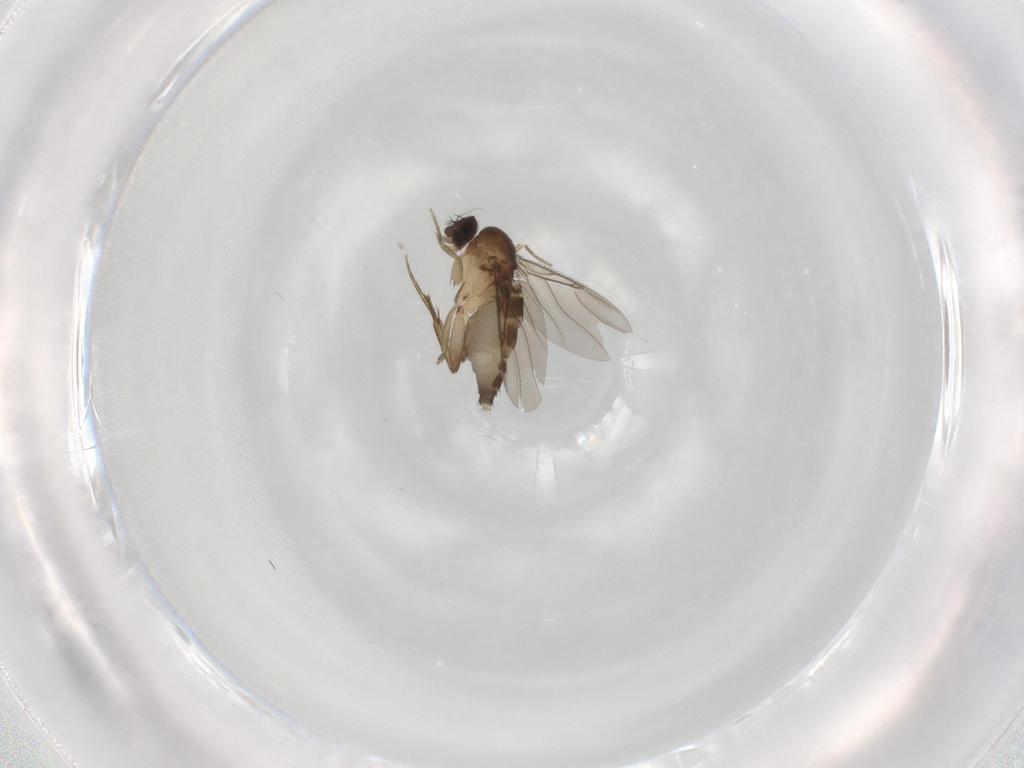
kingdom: Animalia
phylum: Arthropoda
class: Insecta
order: Diptera
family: Phoridae
